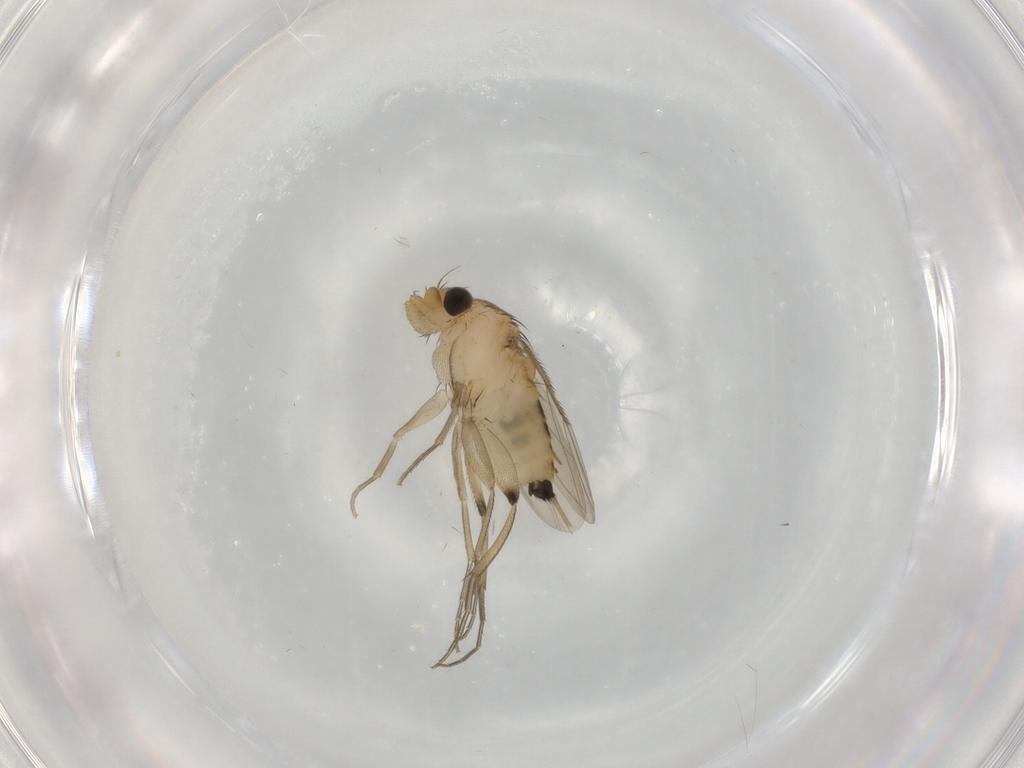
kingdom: Animalia
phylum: Arthropoda
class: Insecta
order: Diptera
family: Phoridae
